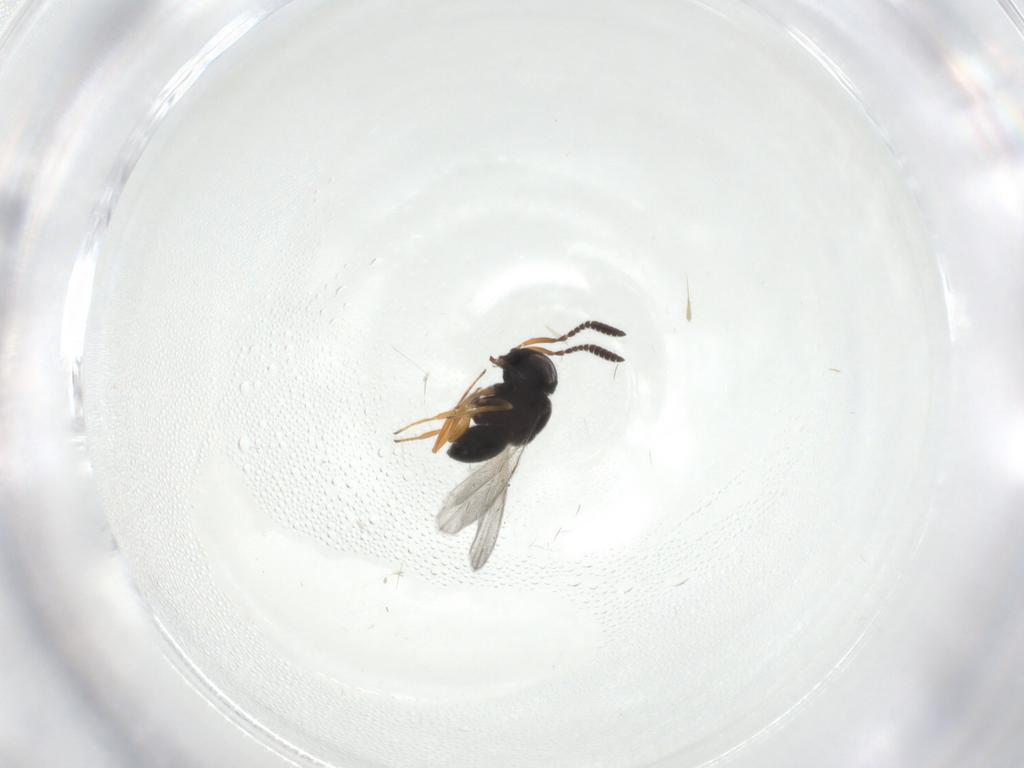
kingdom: Animalia
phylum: Arthropoda
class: Insecta
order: Hymenoptera
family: Scelionidae
